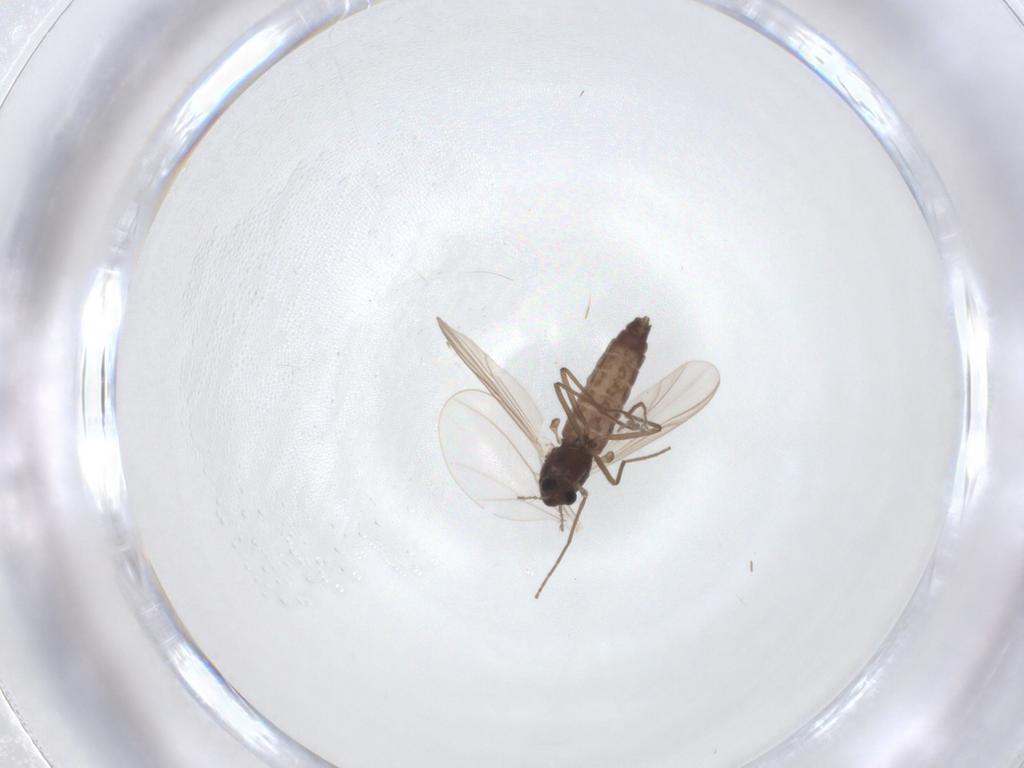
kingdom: Animalia
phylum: Arthropoda
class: Insecta
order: Diptera
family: Chironomidae
